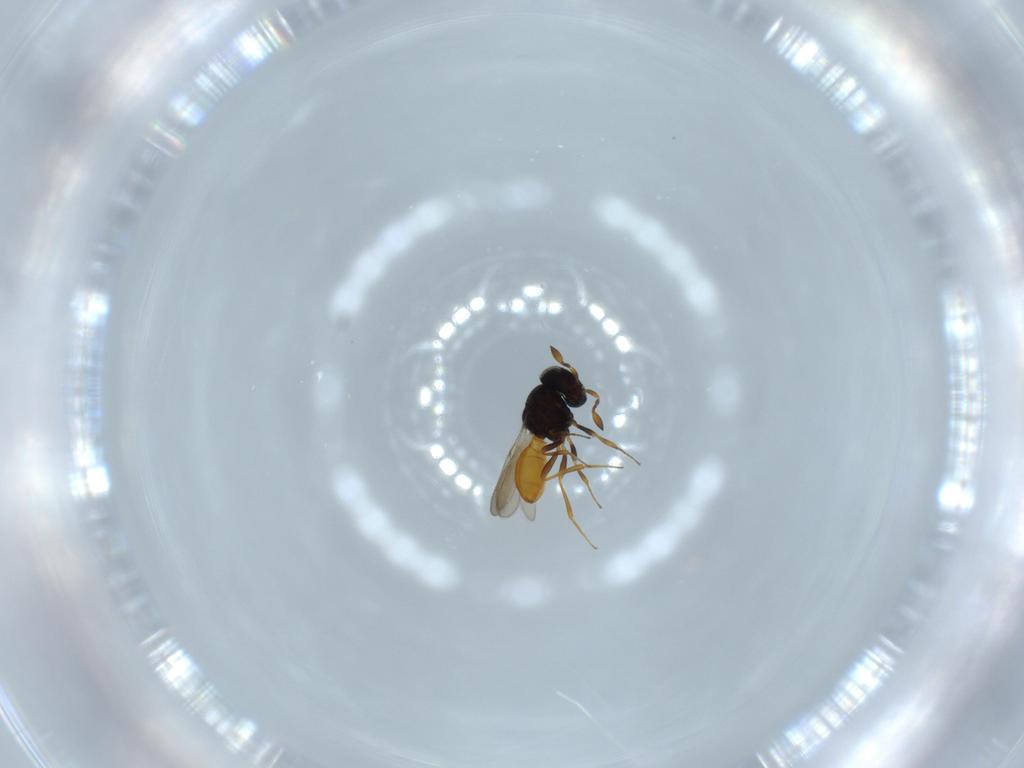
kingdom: Animalia
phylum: Arthropoda
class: Insecta
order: Hymenoptera
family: Scelionidae
